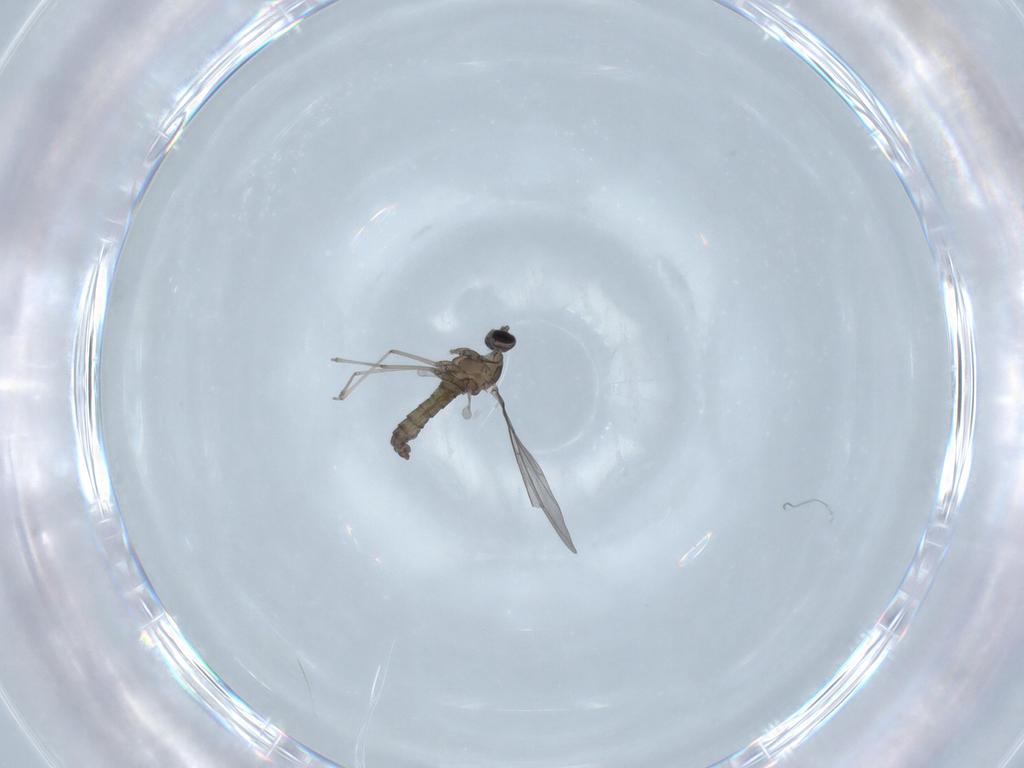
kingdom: Animalia
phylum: Arthropoda
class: Insecta
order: Diptera
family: Cecidomyiidae
